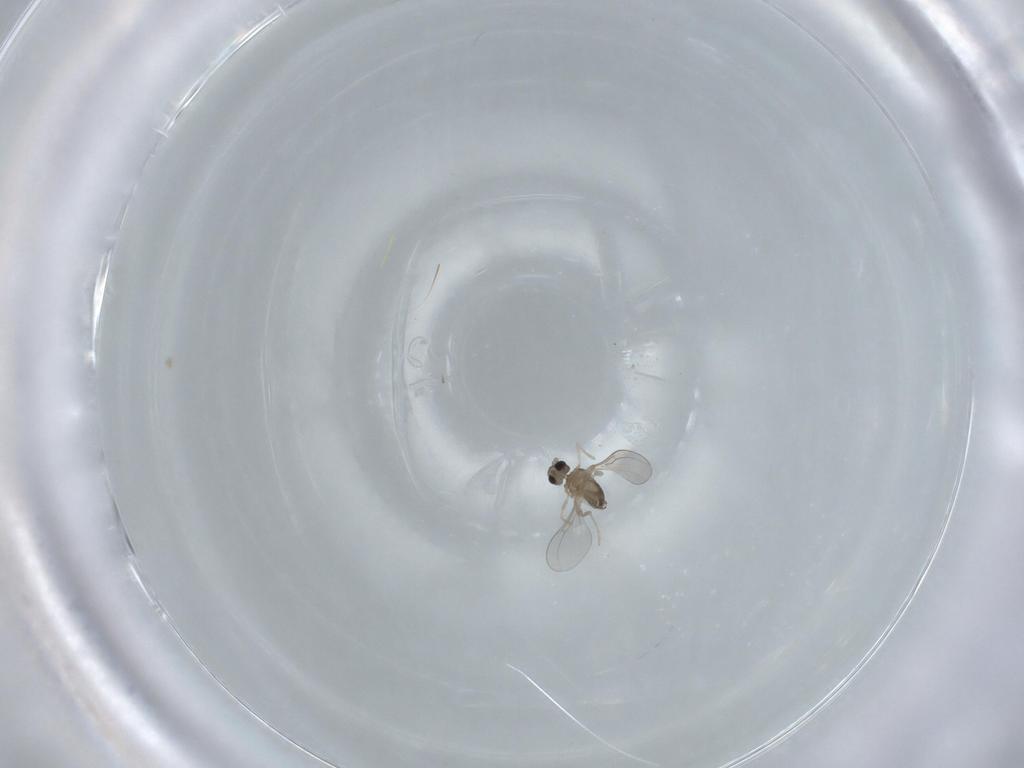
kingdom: Animalia
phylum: Arthropoda
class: Insecta
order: Diptera
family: Cecidomyiidae
